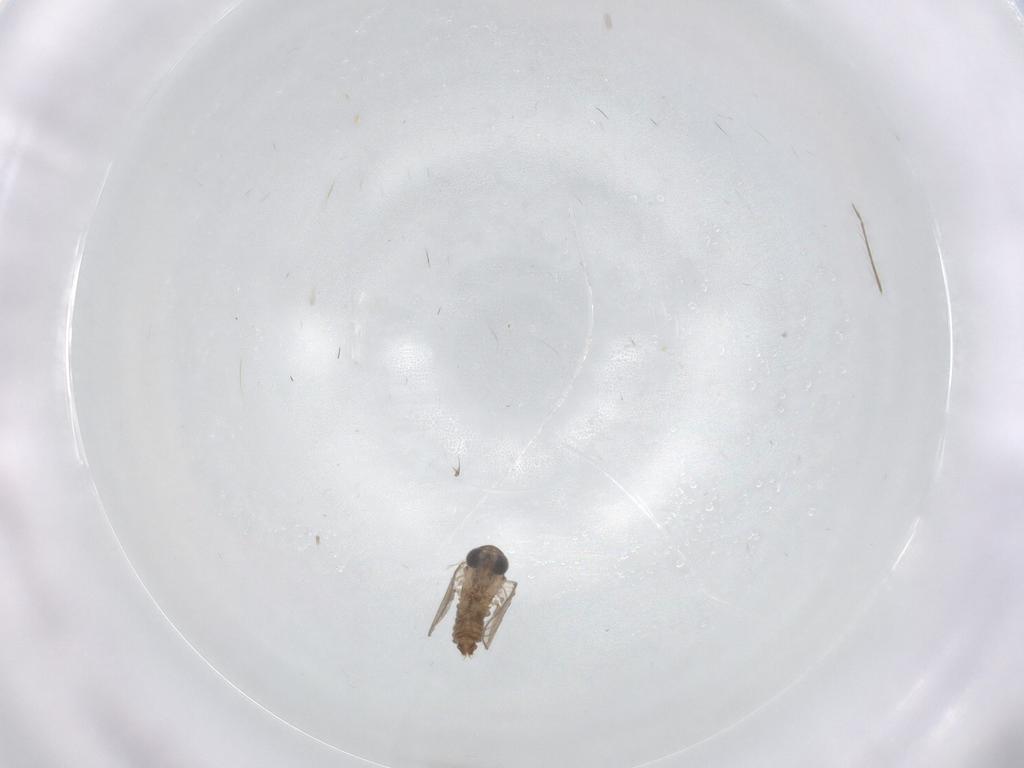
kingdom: Animalia
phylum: Arthropoda
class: Insecta
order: Diptera
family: Chironomidae
